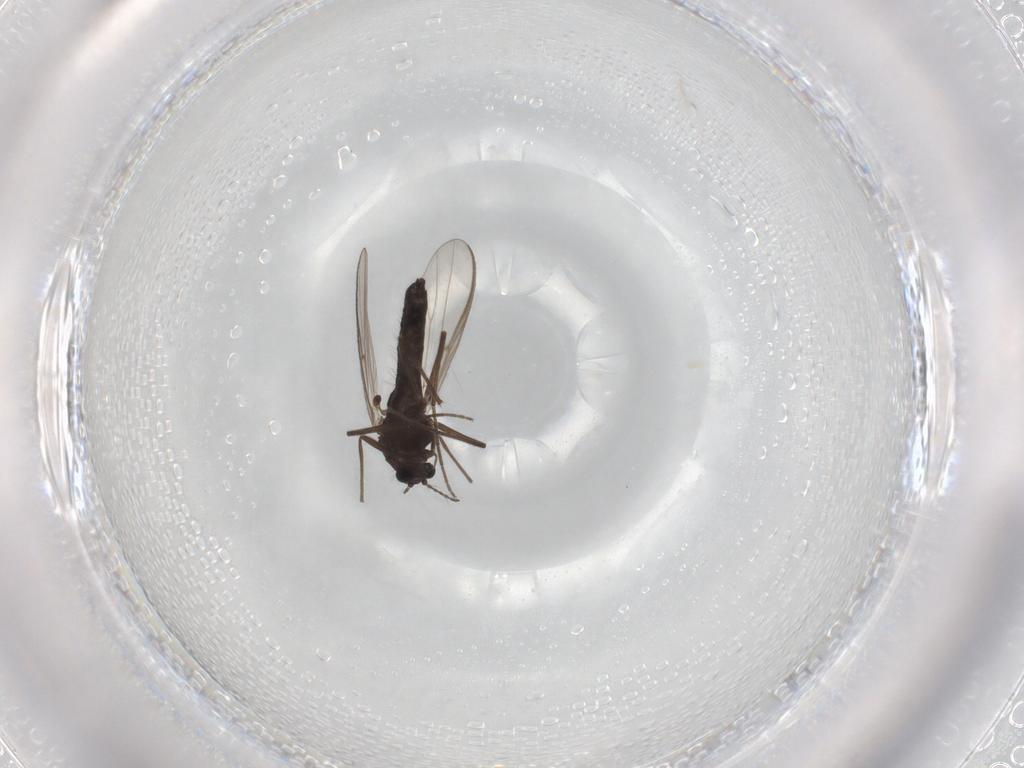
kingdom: Animalia
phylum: Arthropoda
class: Insecta
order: Diptera
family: Chironomidae
